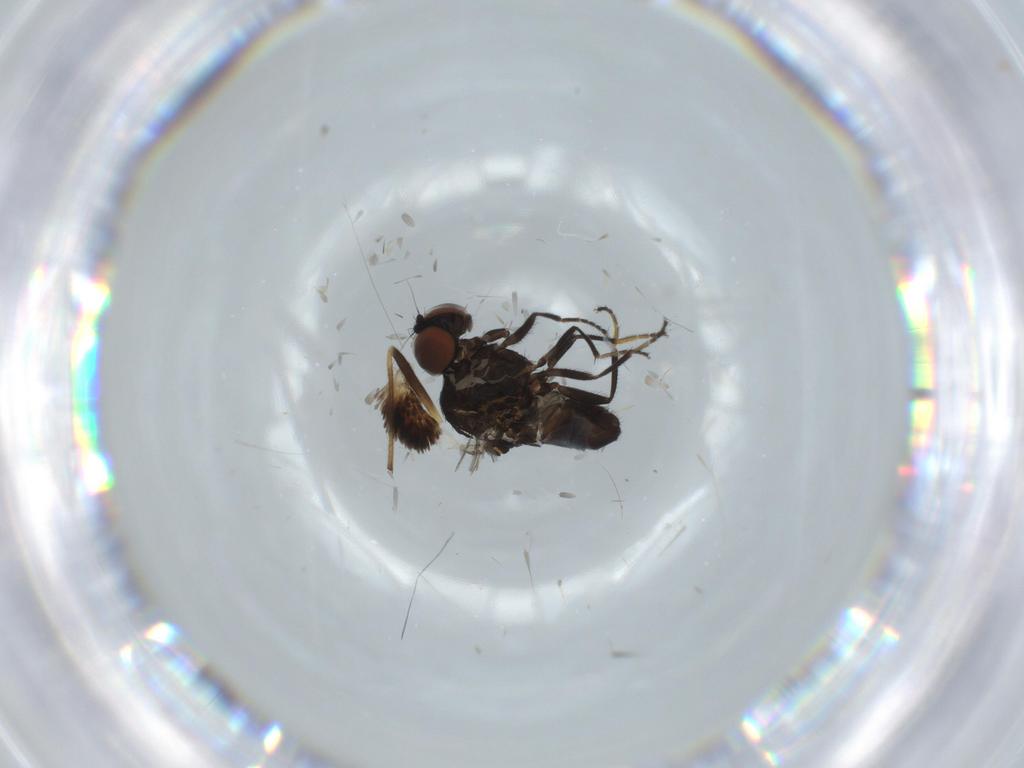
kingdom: Animalia
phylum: Arthropoda
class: Insecta
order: Diptera
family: Milichiidae
